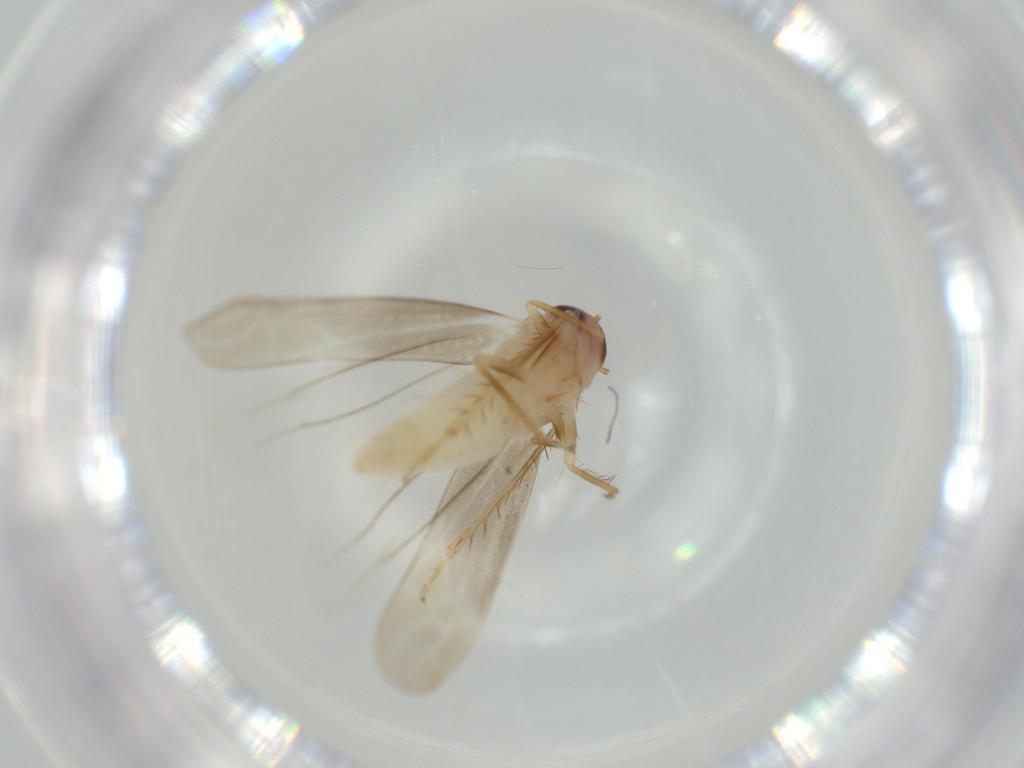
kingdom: Animalia
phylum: Arthropoda
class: Insecta
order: Hemiptera
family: Cicadellidae
